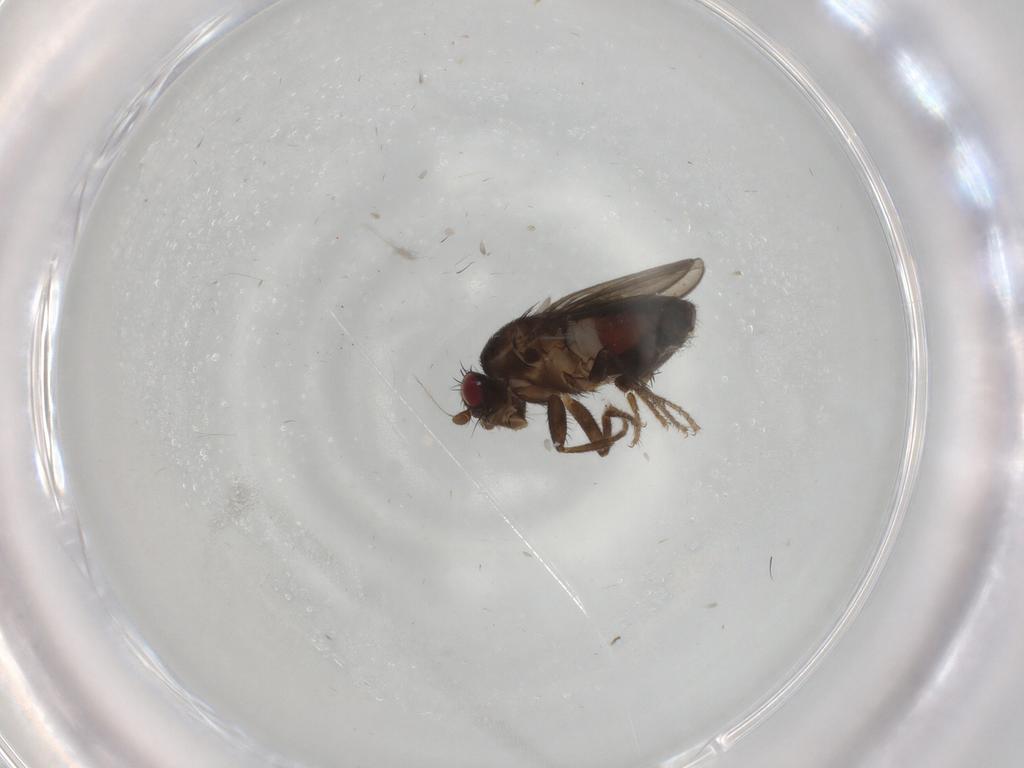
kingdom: Animalia
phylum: Arthropoda
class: Insecta
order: Diptera
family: Sphaeroceridae
